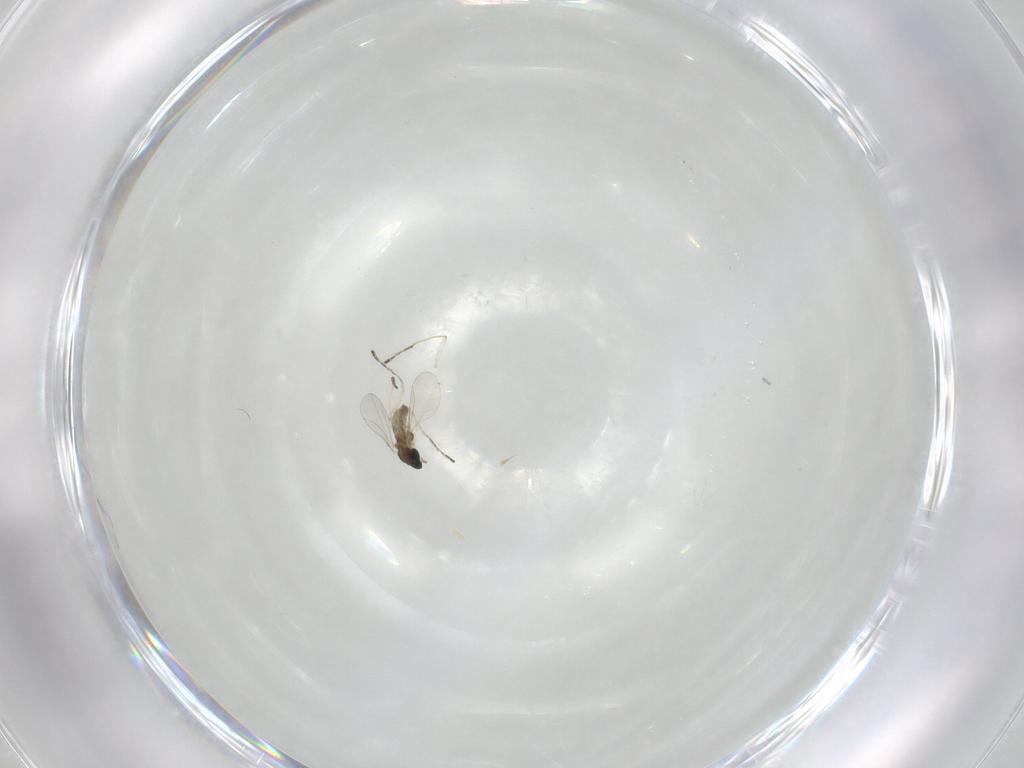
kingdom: Animalia
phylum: Arthropoda
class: Insecta
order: Diptera
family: Cecidomyiidae
